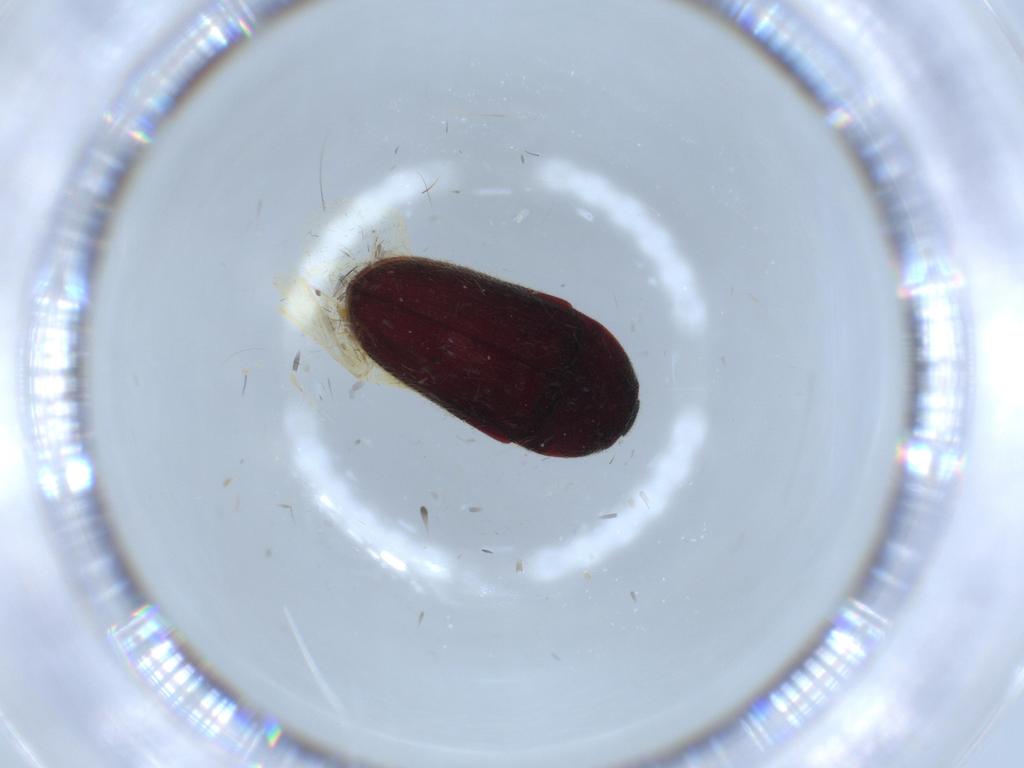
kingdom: Animalia
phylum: Arthropoda
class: Insecta
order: Coleoptera
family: Throscidae
